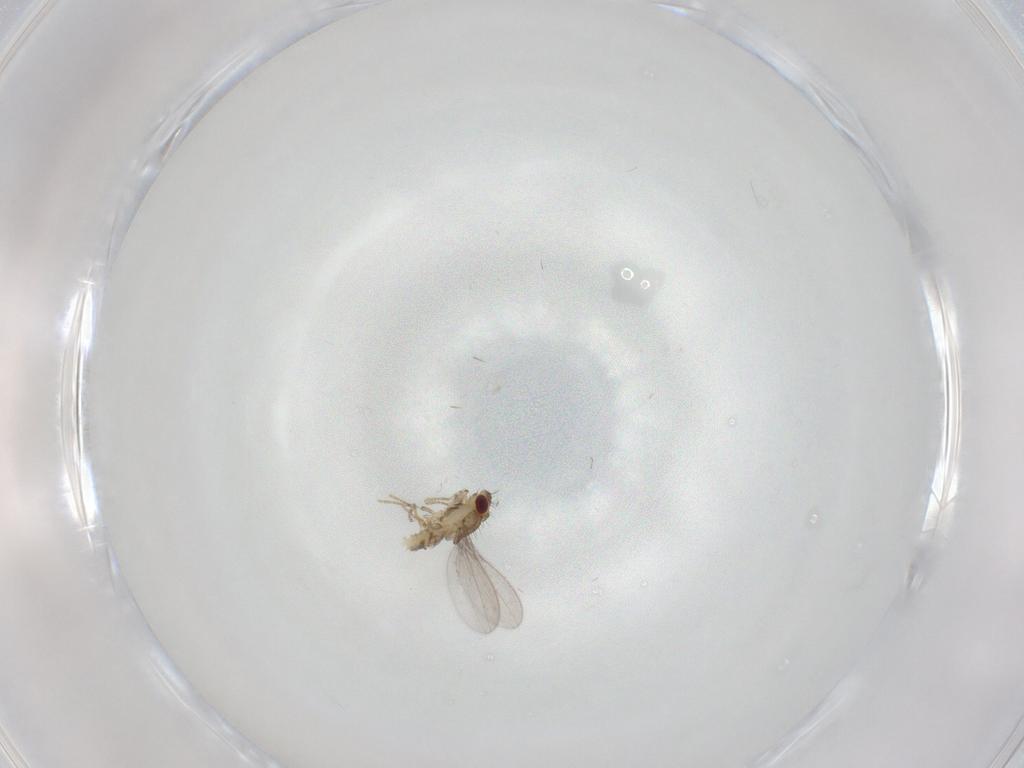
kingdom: Animalia
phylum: Arthropoda
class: Insecta
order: Diptera
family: Asteiidae
